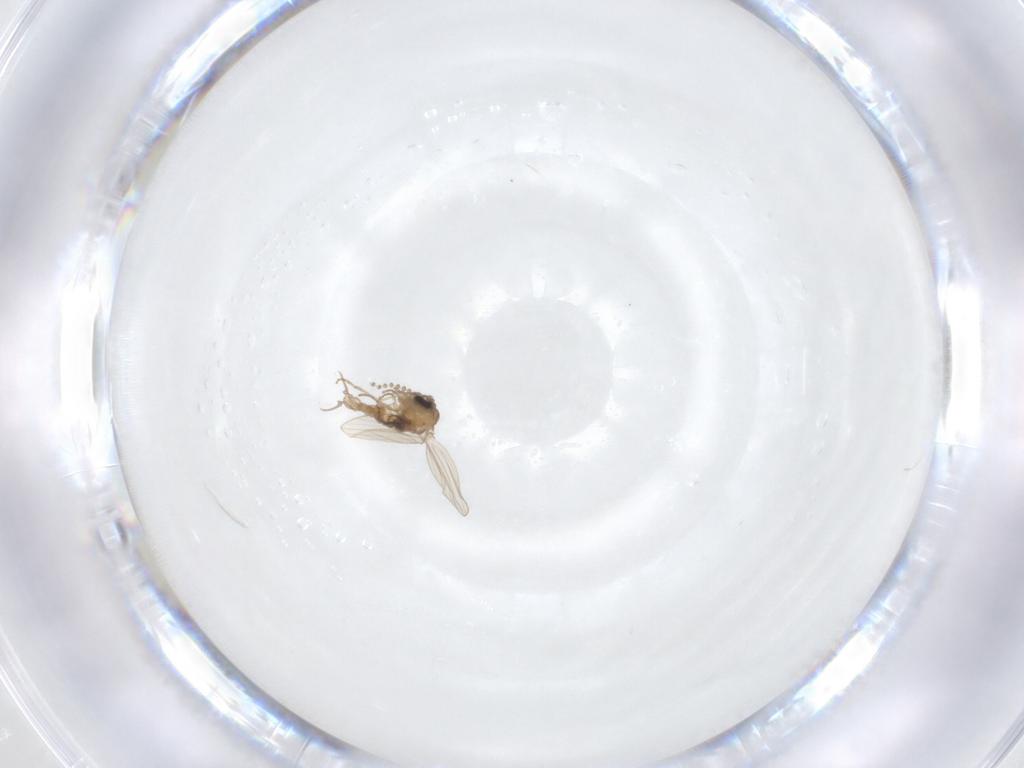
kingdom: Animalia
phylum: Arthropoda
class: Insecta
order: Diptera
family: Psychodidae
